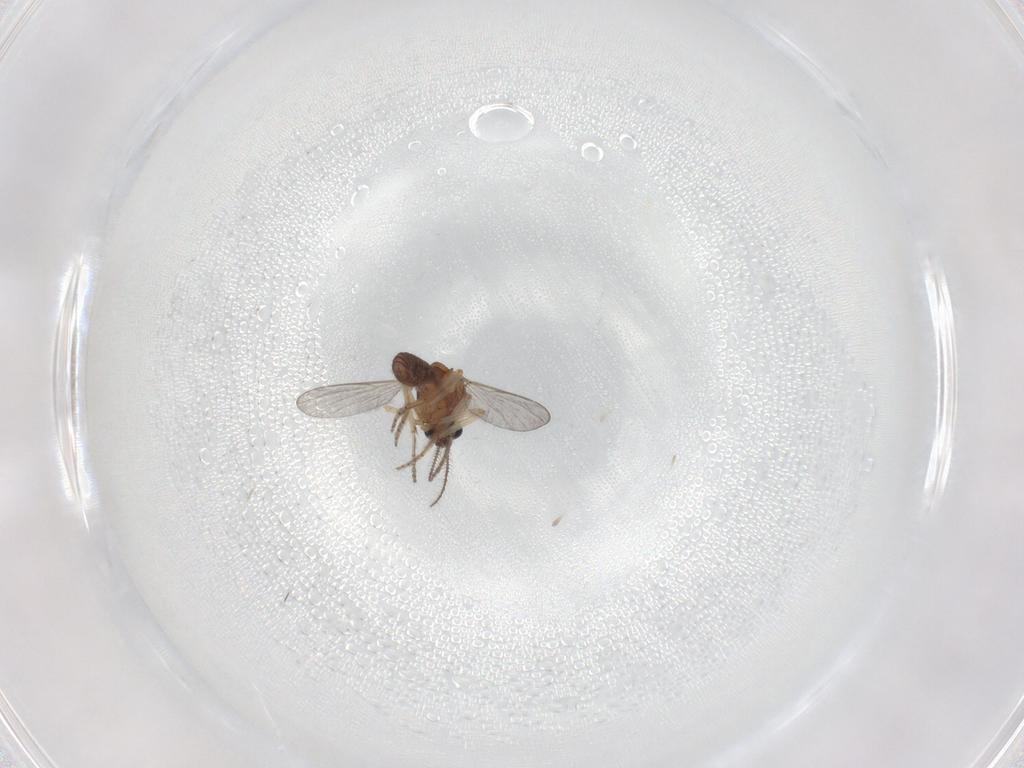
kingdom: Animalia
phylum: Arthropoda
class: Insecta
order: Diptera
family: Ceratopogonidae
